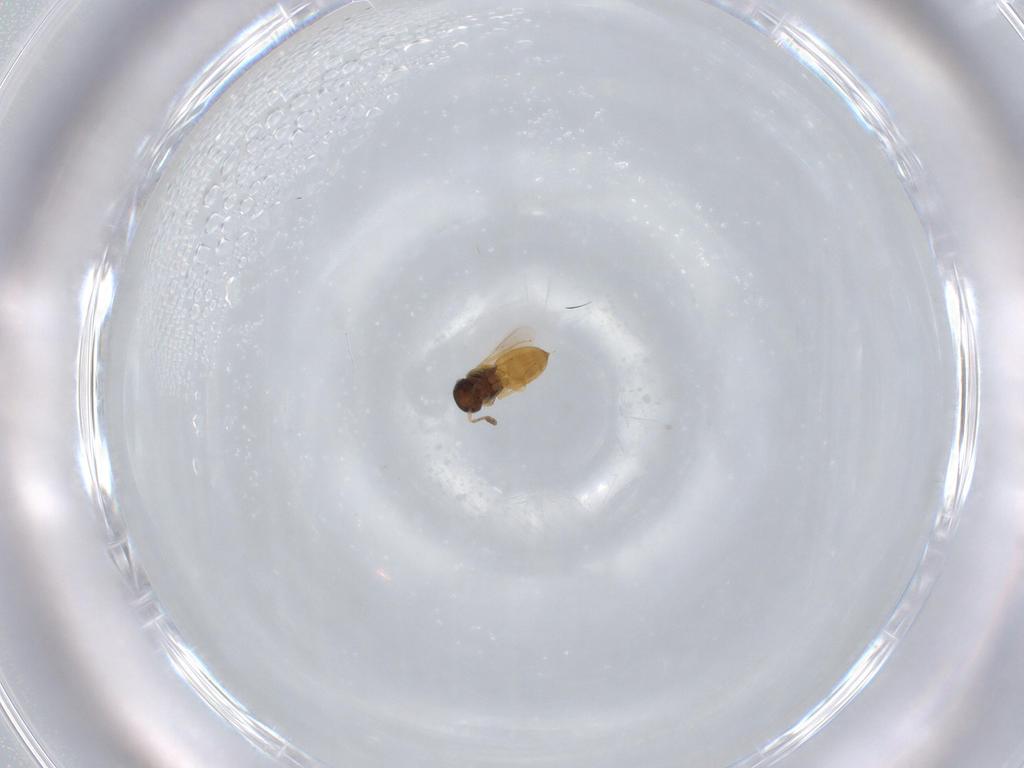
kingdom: Animalia
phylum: Arthropoda
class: Insecta
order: Hymenoptera
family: Scelionidae
